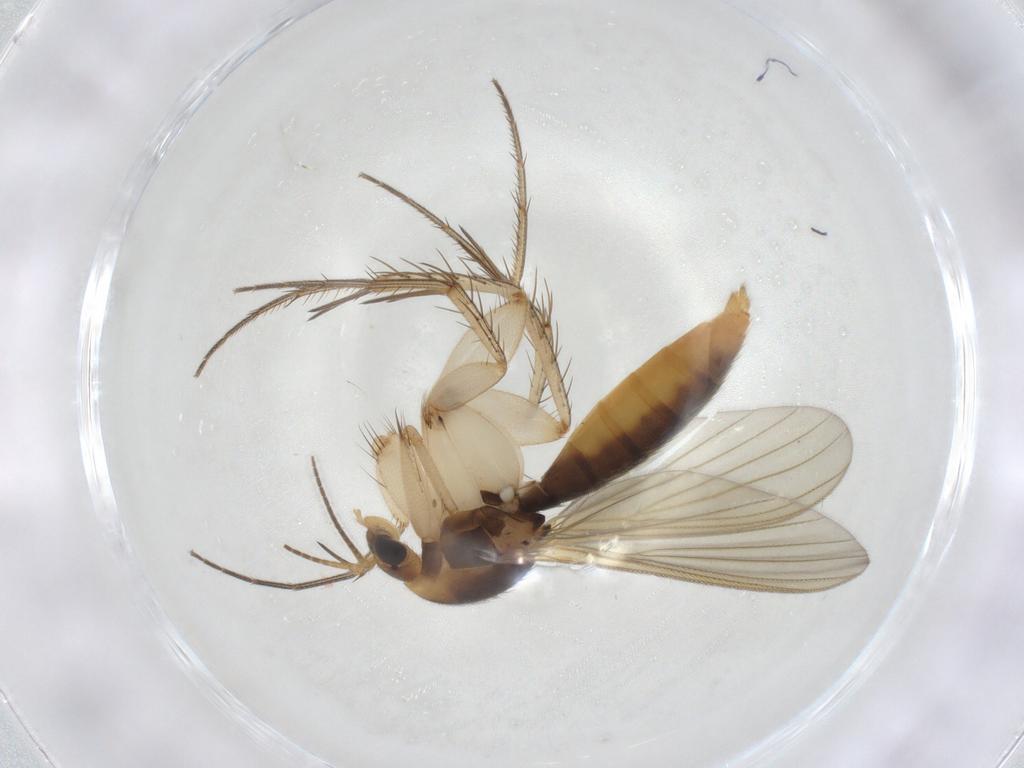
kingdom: Animalia
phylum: Arthropoda
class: Insecta
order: Diptera
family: Mycetophilidae
